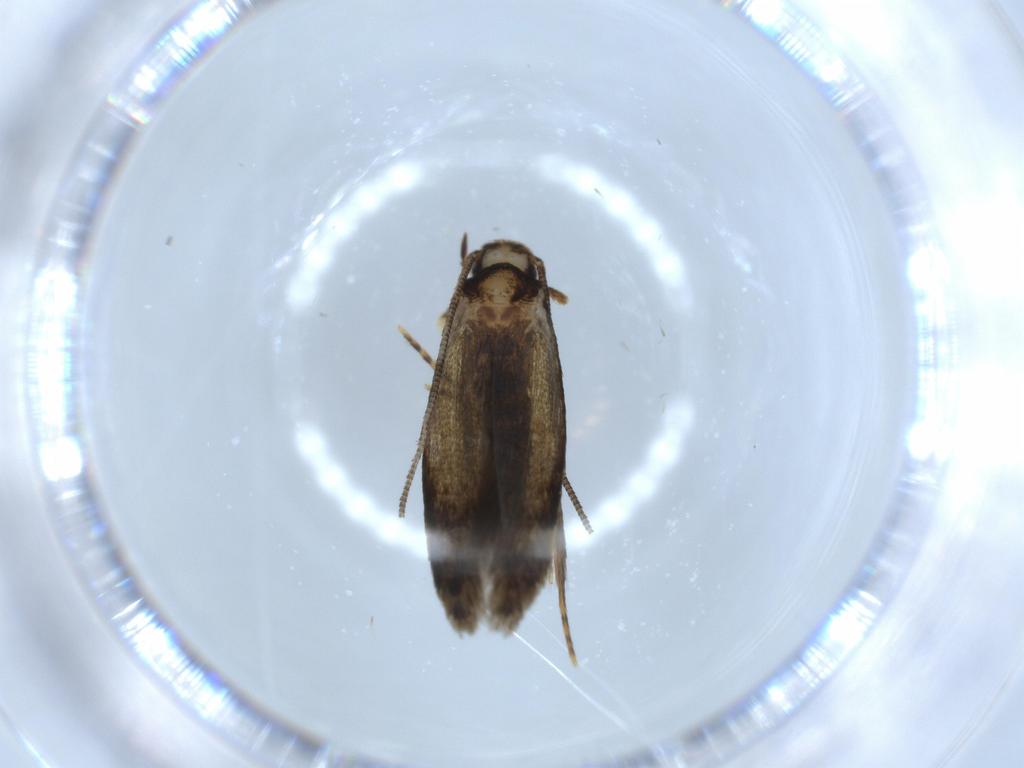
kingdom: Animalia
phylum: Arthropoda
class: Insecta
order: Lepidoptera
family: Tineidae
